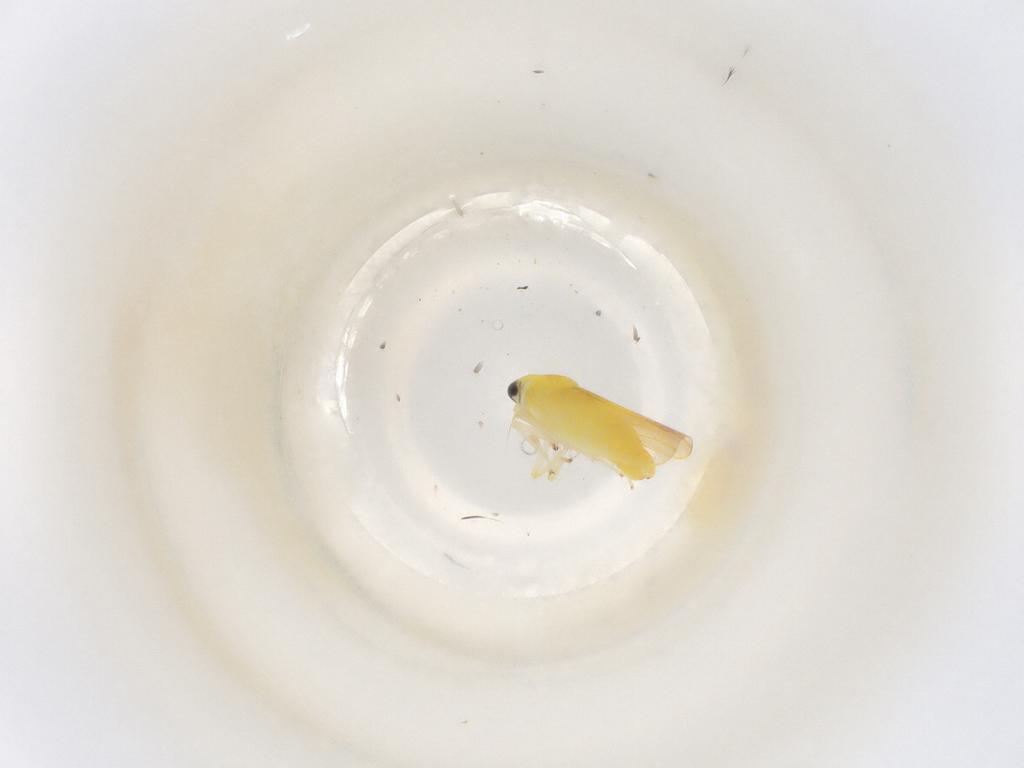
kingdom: Animalia
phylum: Arthropoda
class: Insecta
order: Hemiptera
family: Cicadellidae
